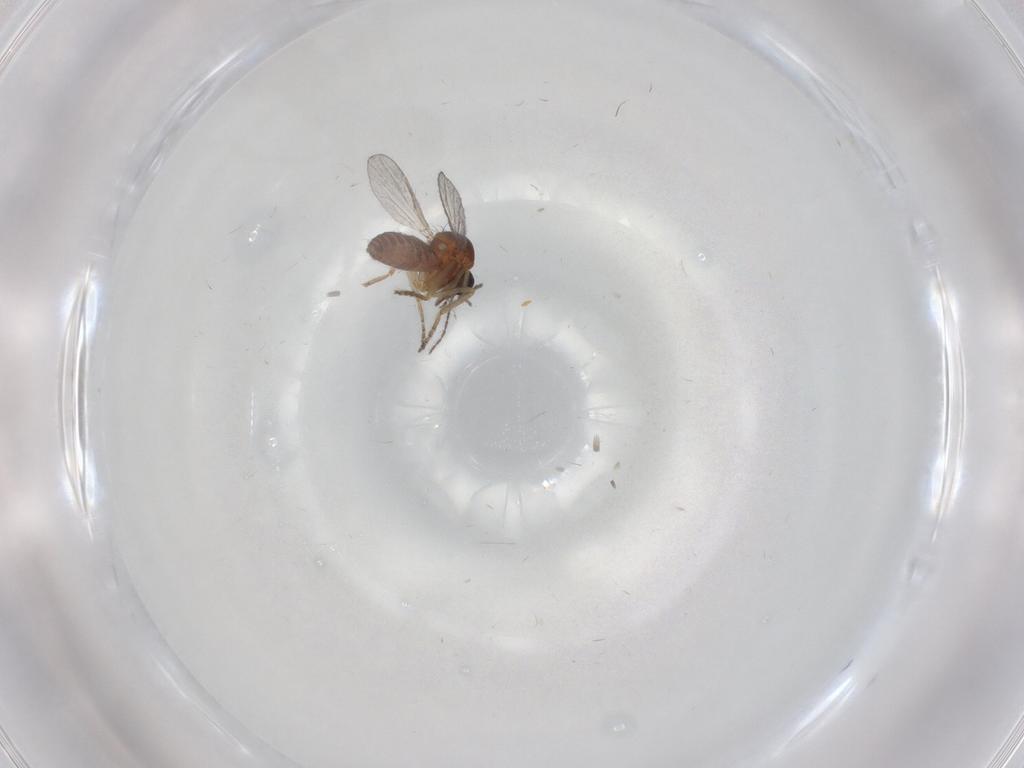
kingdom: Animalia
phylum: Arthropoda
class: Insecta
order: Diptera
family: Ceratopogonidae
